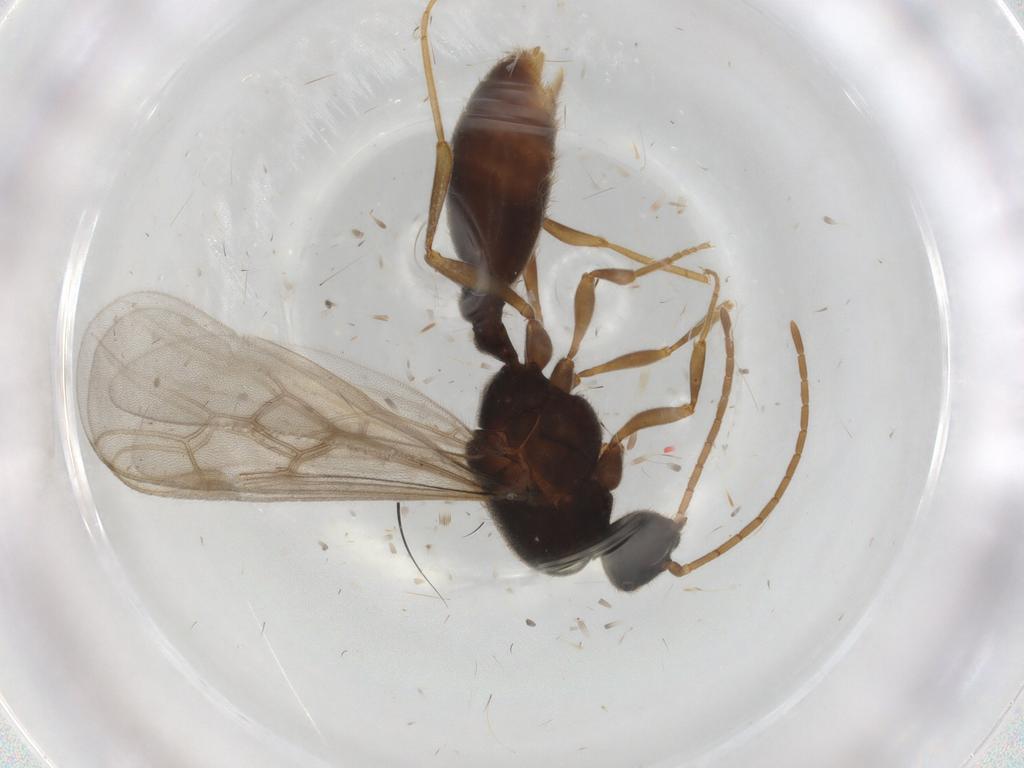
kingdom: Animalia
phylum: Arthropoda
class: Insecta
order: Hymenoptera
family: Formicidae
